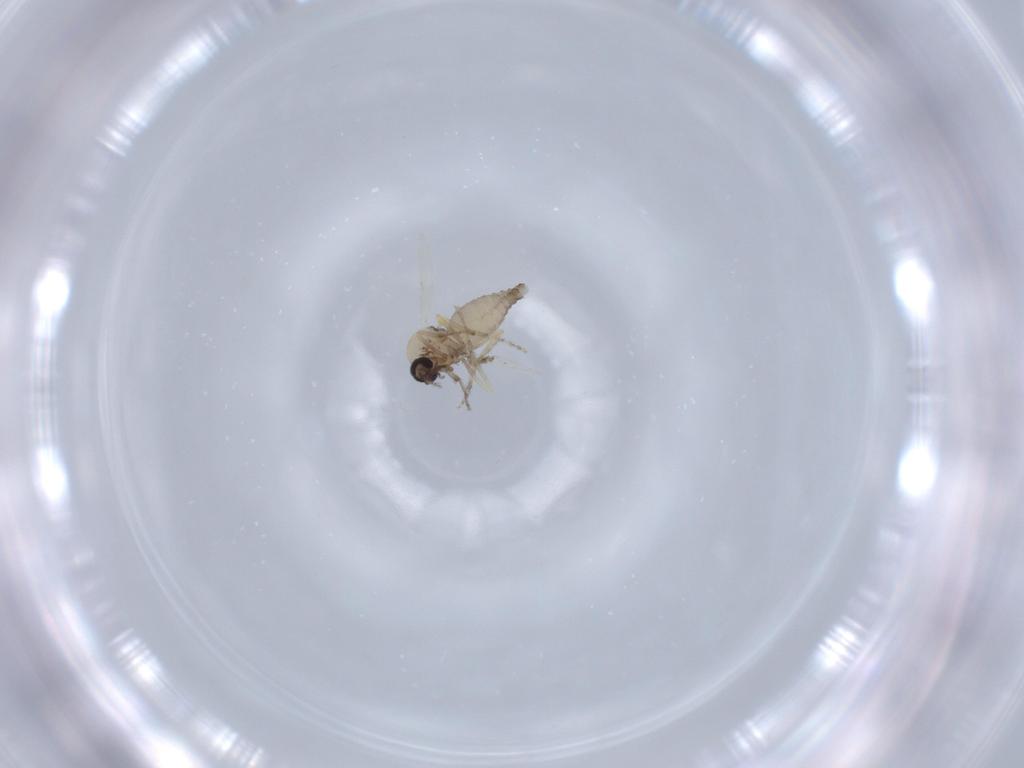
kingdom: Animalia
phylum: Arthropoda
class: Insecta
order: Diptera
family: Ceratopogonidae
